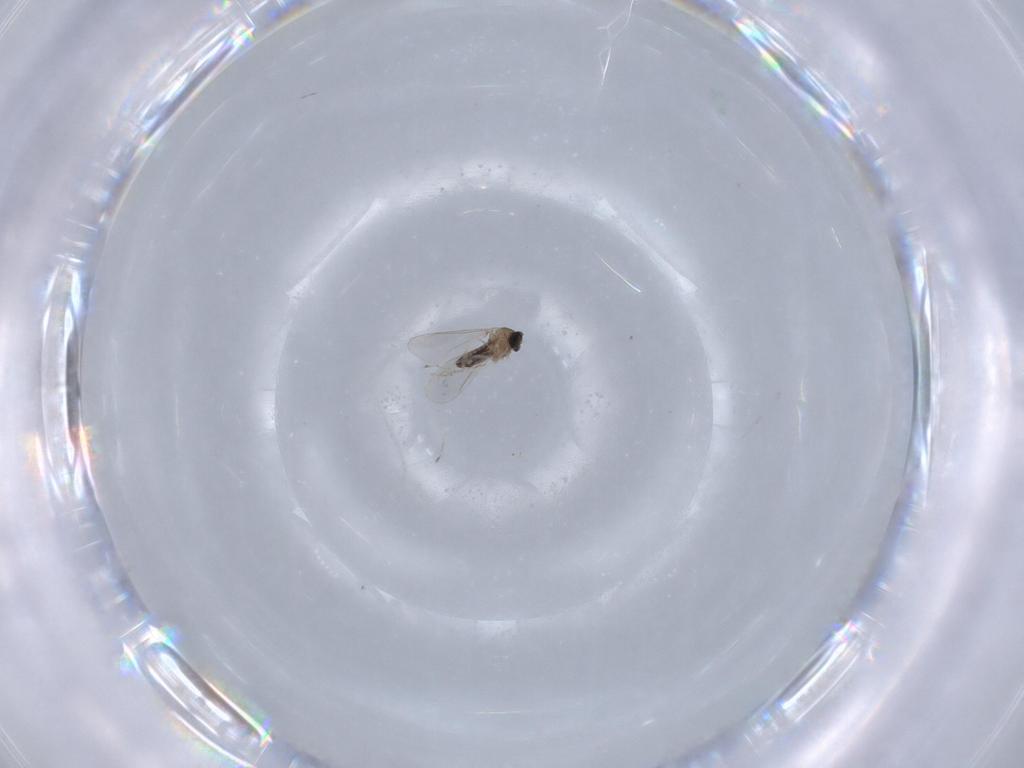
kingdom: Animalia
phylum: Arthropoda
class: Insecta
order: Diptera
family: Cecidomyiidae
